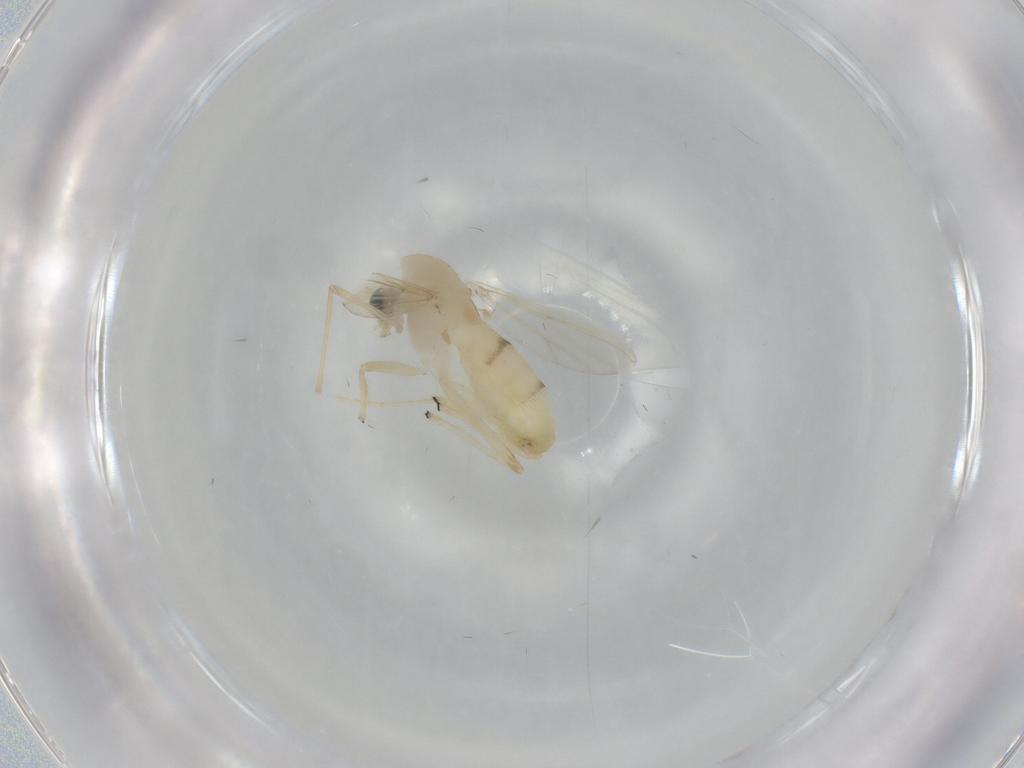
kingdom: Animalia
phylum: Arthropoda
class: Insecta
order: Diptera
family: Chironomidae
